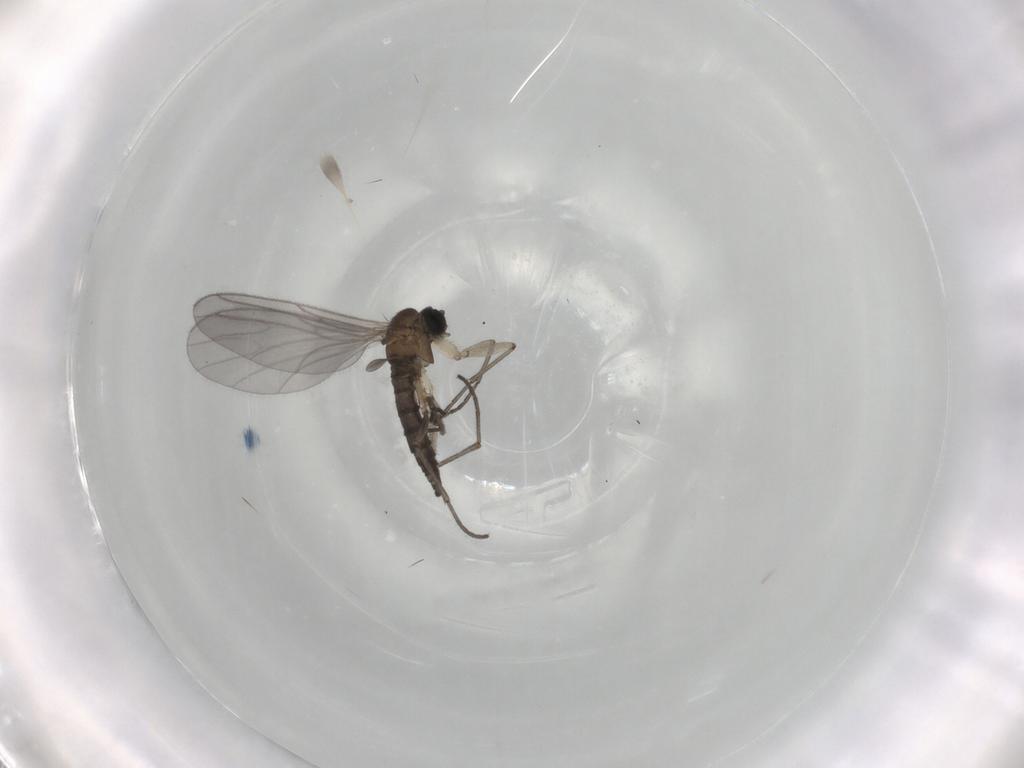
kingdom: Animalia
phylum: Arthropoda
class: Insecta
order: Diptera
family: Sciaridae
